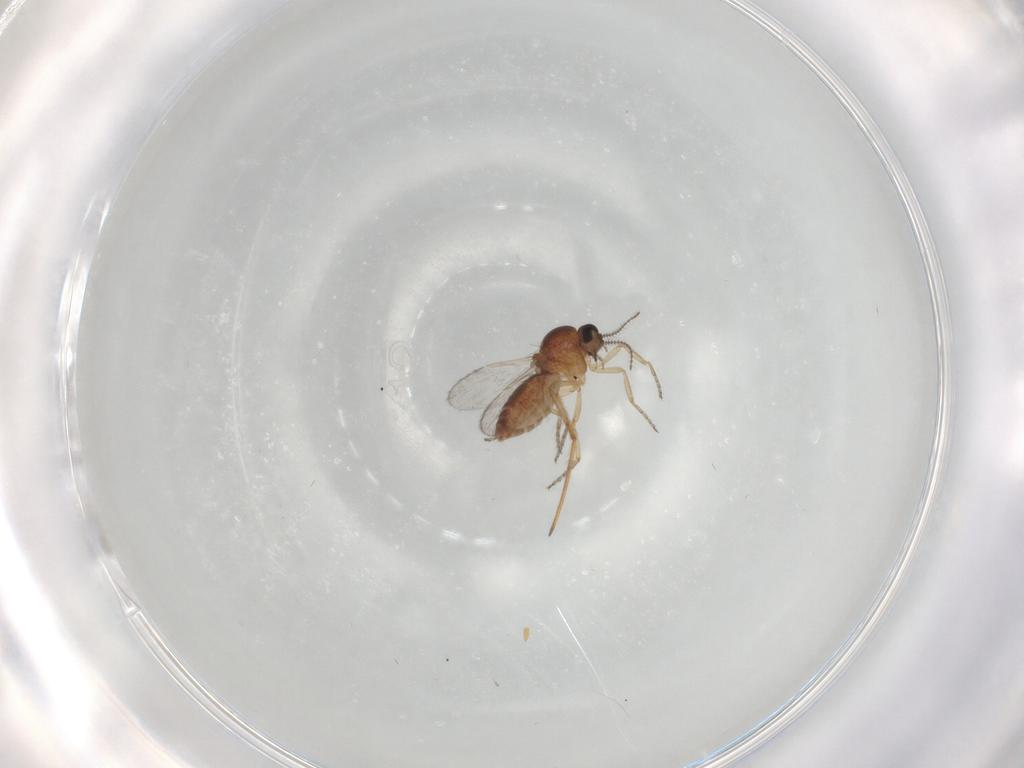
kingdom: Animalia
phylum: Arthropoda
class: Insecta
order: Diptera
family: Ceratopogonidae
